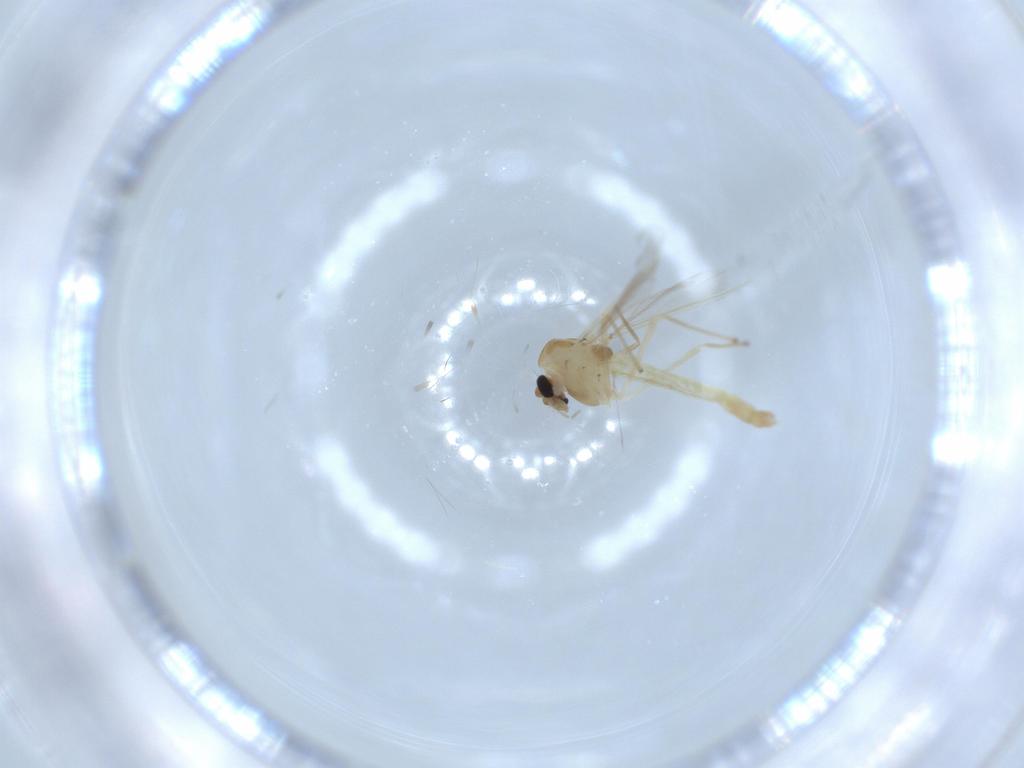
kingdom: Animalia
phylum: Arthropoda
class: Insecta
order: Diptera
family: Chironomidae
